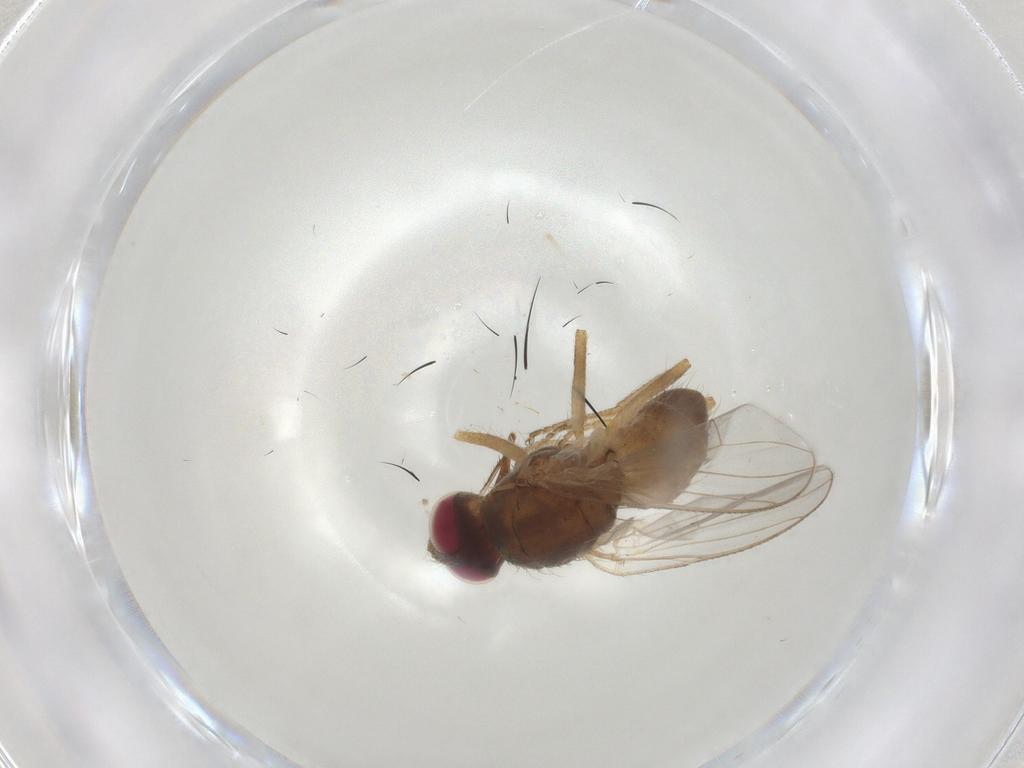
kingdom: Animalia
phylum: Arthropoda
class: Insecta
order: Diptera
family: Muscidae
